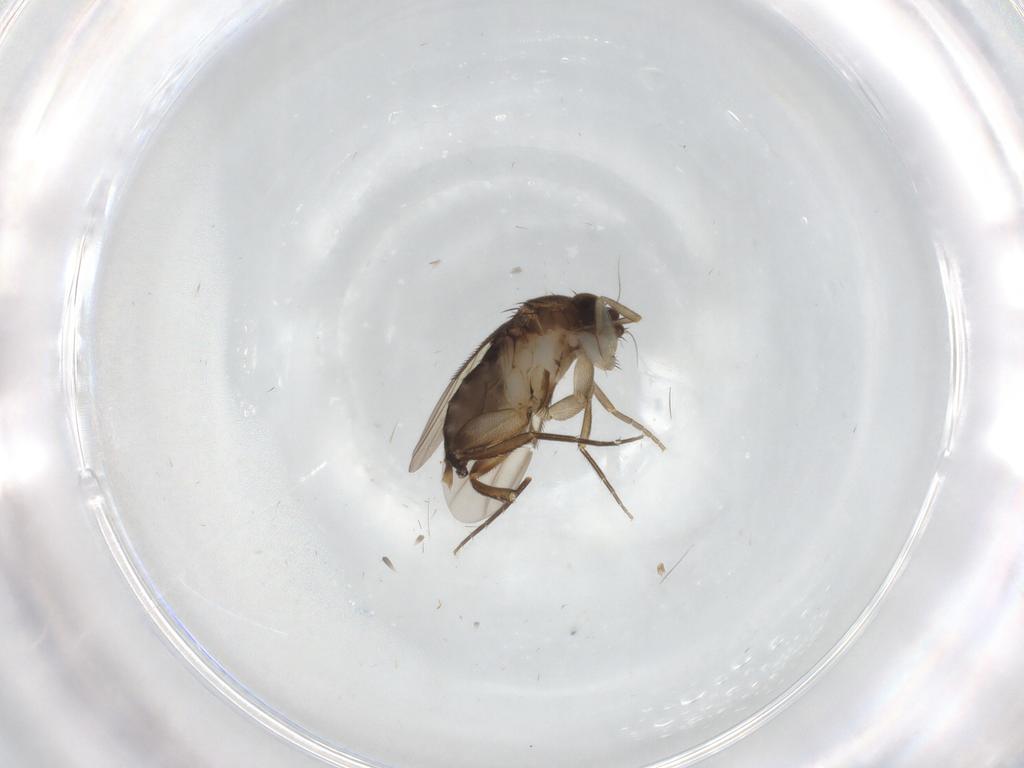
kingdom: Animalia
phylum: Arthropoda
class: Insecta
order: Diptera
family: Phoridae
